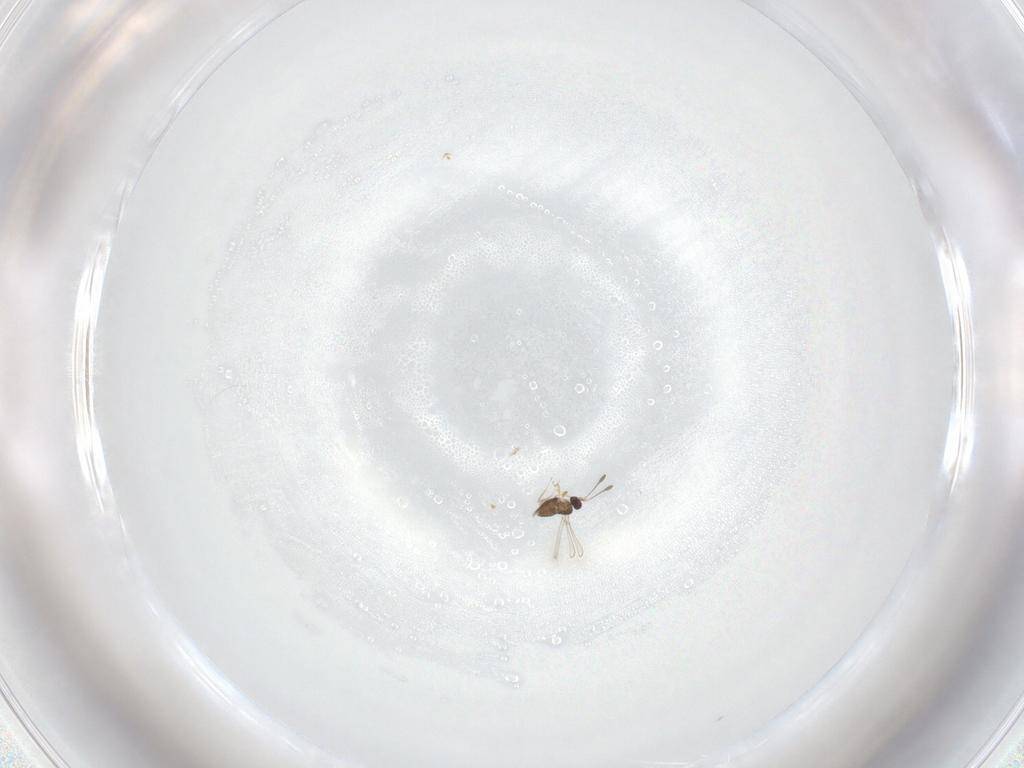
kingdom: Animalia
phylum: Arthropoda
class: Insecta
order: Hymenoptera
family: Mymaridae
